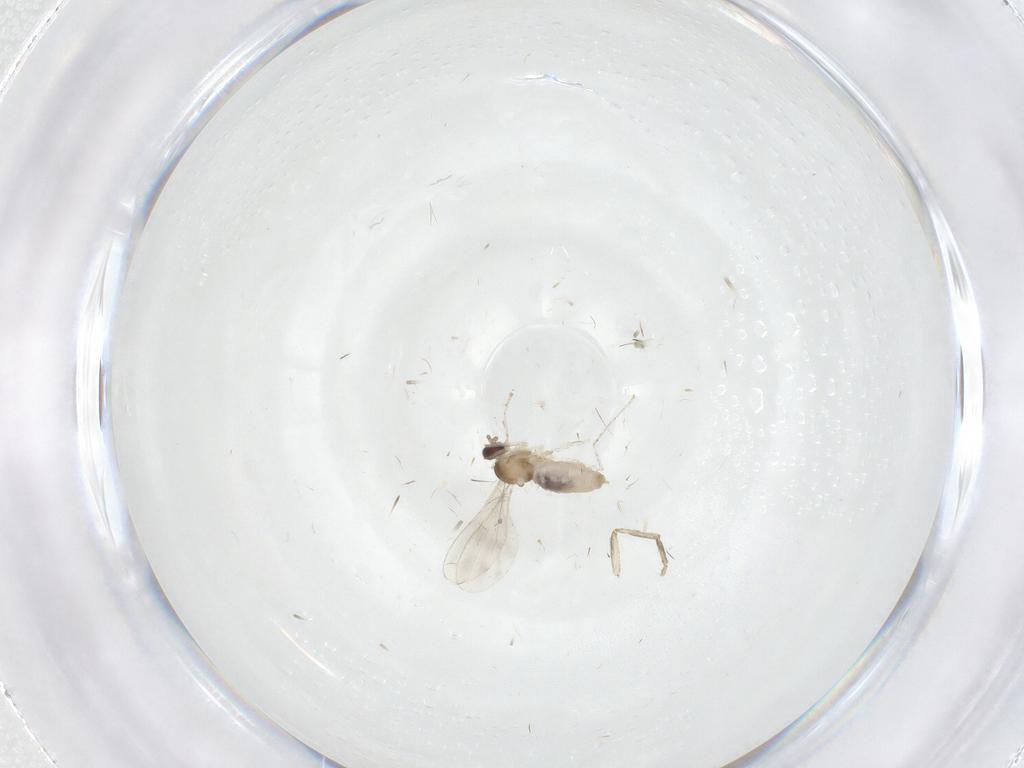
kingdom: Animalia
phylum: Arthropoda
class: Insecta
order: Diptera
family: Cecidomyiidae
